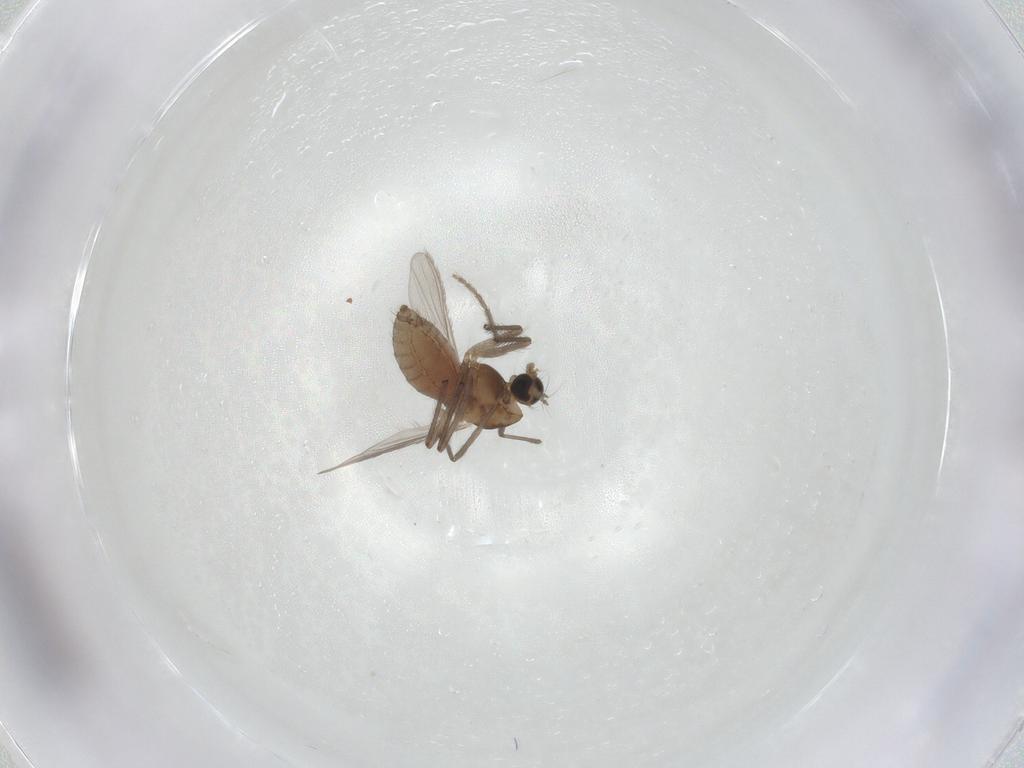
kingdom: Animalia
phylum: Arthropoda
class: Insecta
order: Diptera
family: Chironomidae
